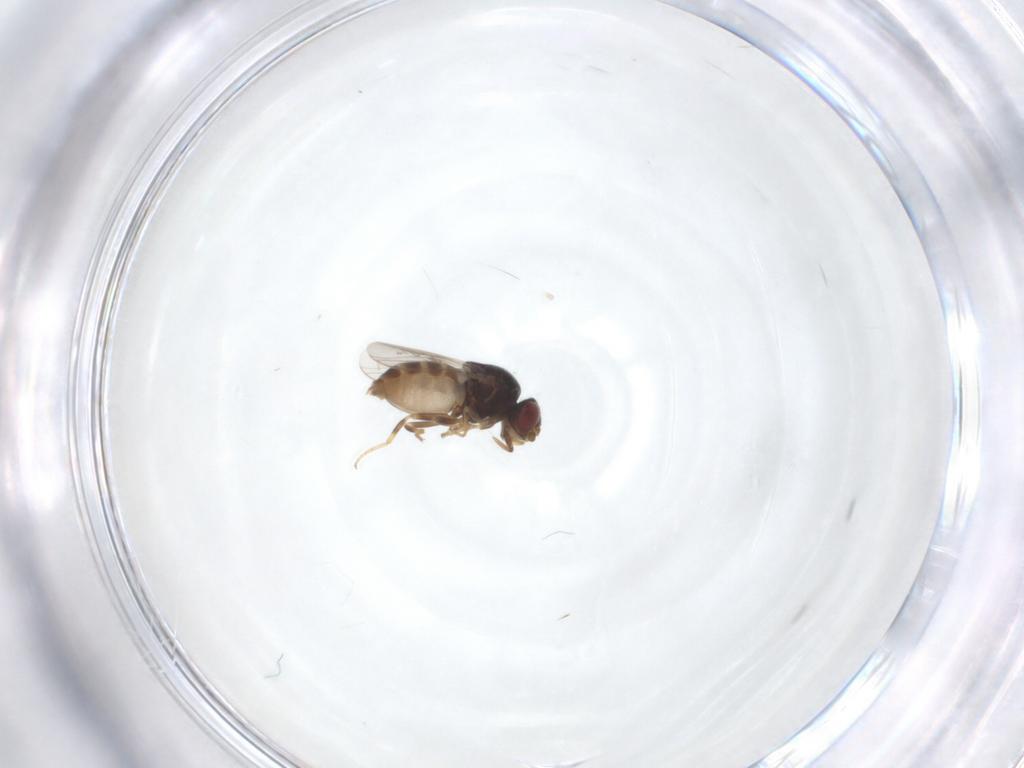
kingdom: Animalia
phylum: Arthropoda
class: Insecta
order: Diptera
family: Chloropidae
